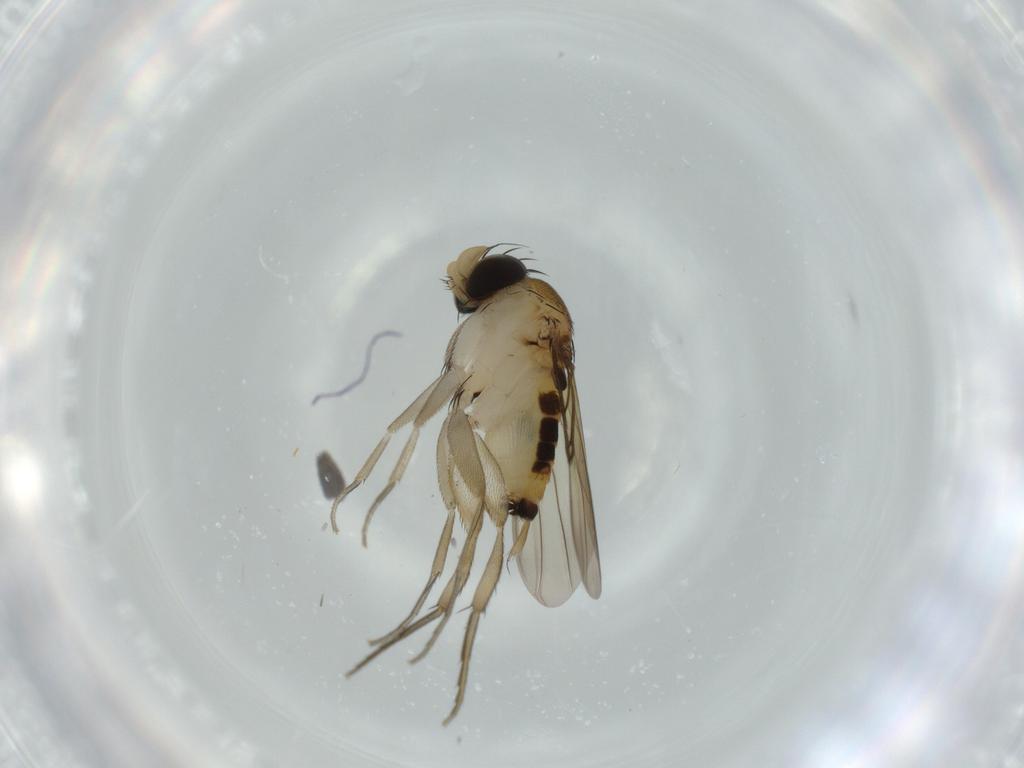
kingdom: Animalia
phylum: Arthropoda
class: Insecta
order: Diptera
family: Phoridae
